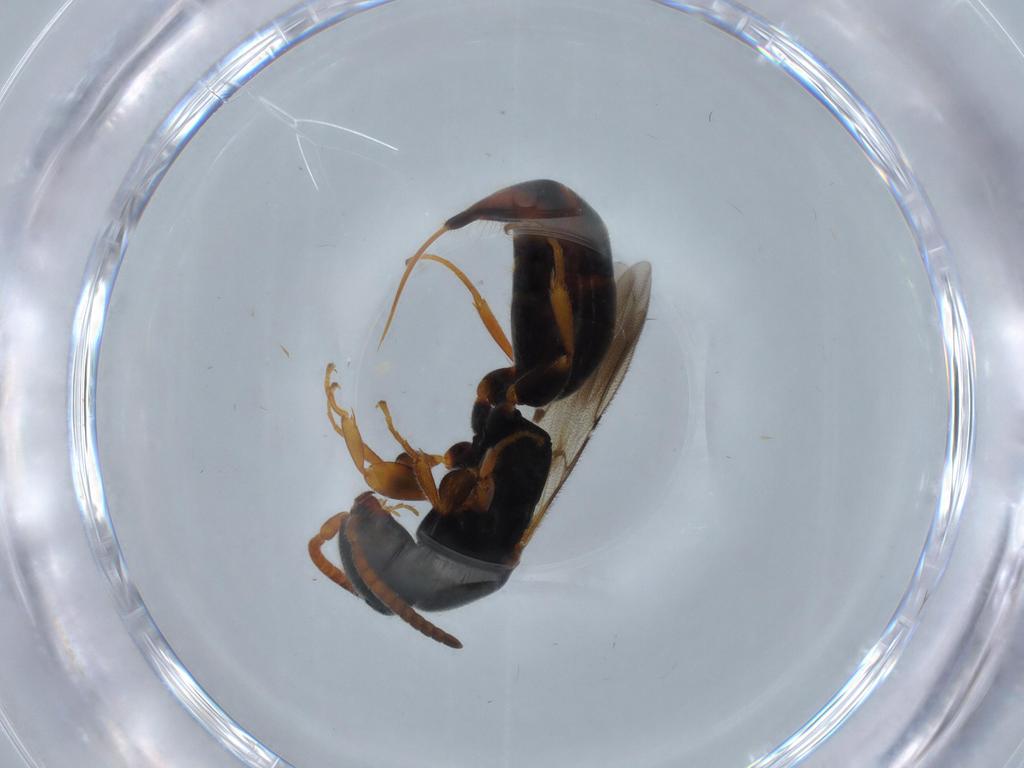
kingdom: Animalia
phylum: Arthropoda
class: Insecta
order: Hymenoptera
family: Bethylidae
